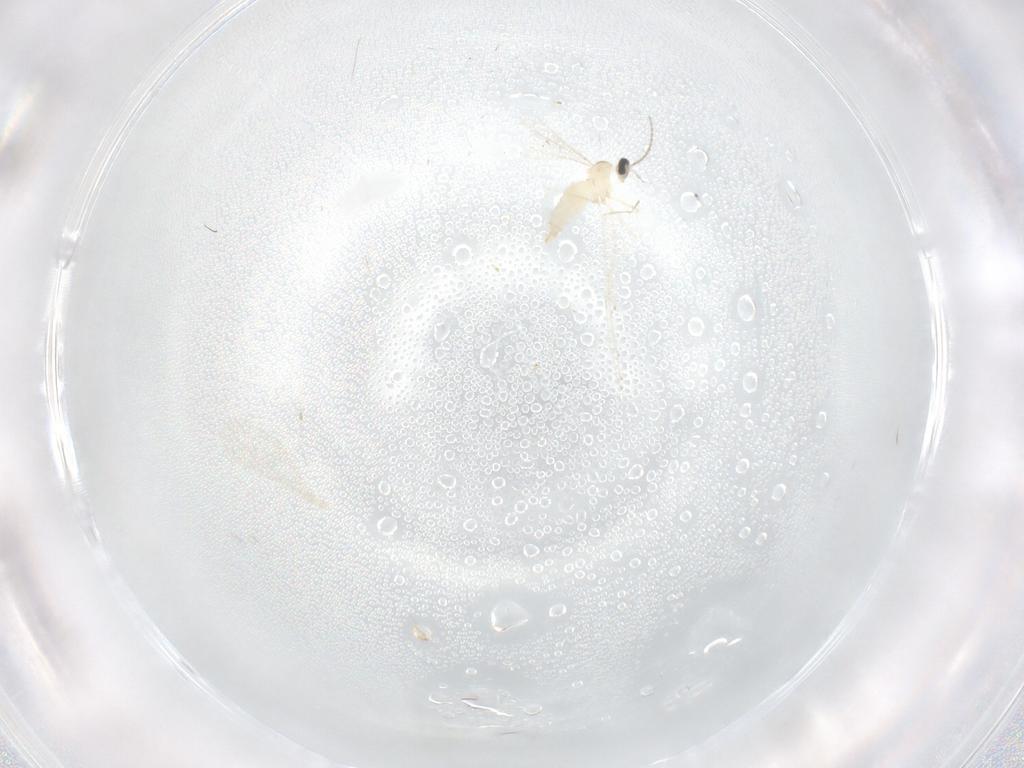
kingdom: Animalia
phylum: Arthropoda
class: Insecta
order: Diptera
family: Cecidomyiidae
